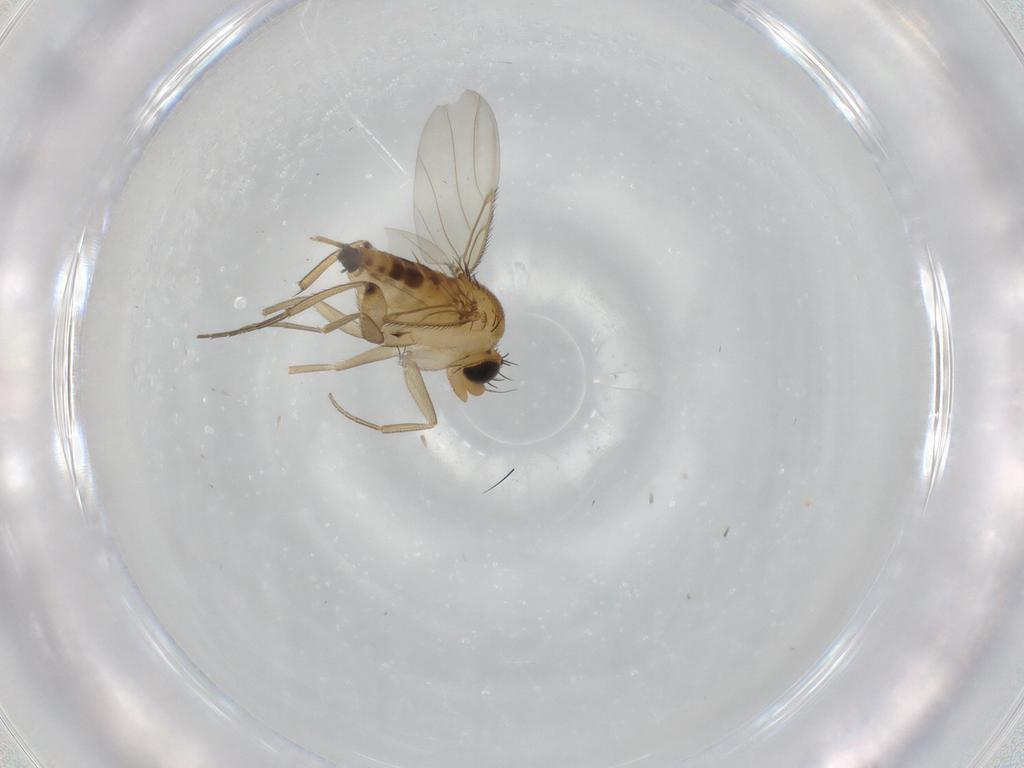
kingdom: Animalia
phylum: Arthropoda
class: Insecta
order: Diptera
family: Phoridae
